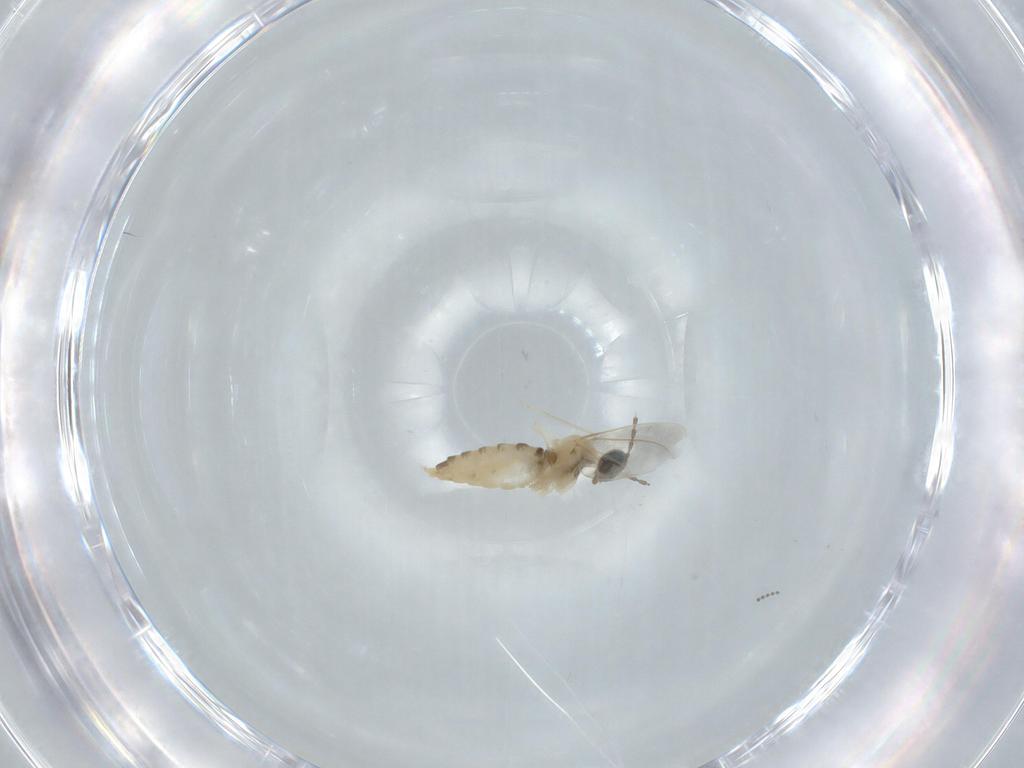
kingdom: Animalia
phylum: Arthropoda
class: Insecta
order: Diptera
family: Cecidomyiidae
